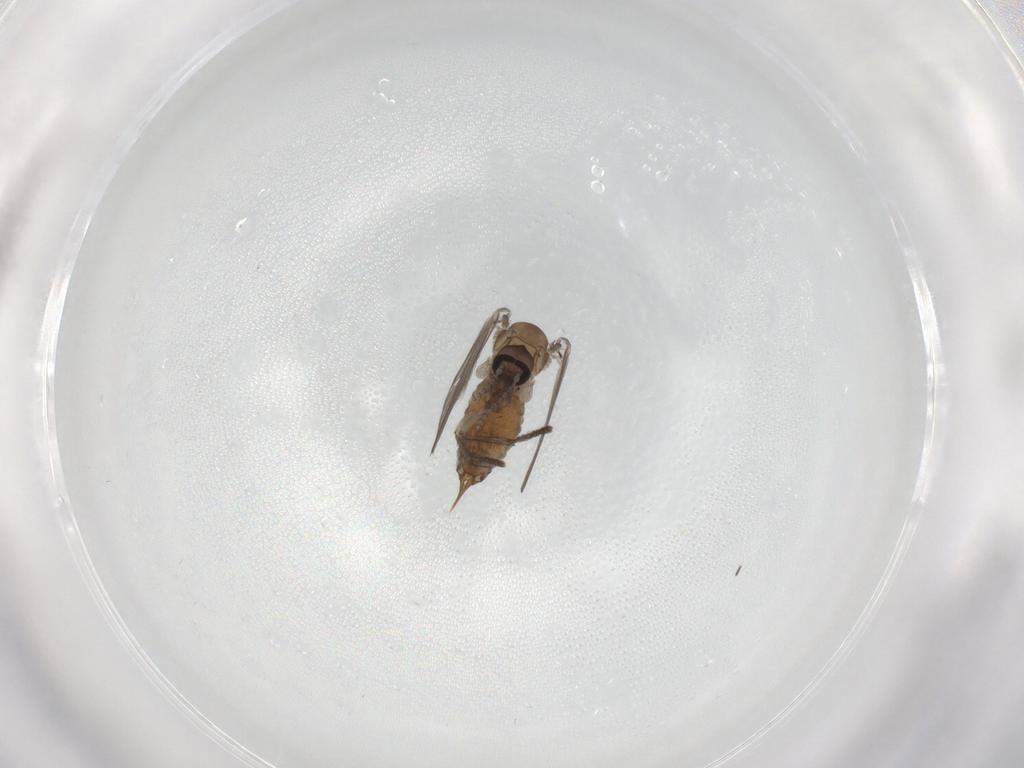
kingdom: Animalia
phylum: Arthropoda
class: Insecta
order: Diptera
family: Psychodidae
